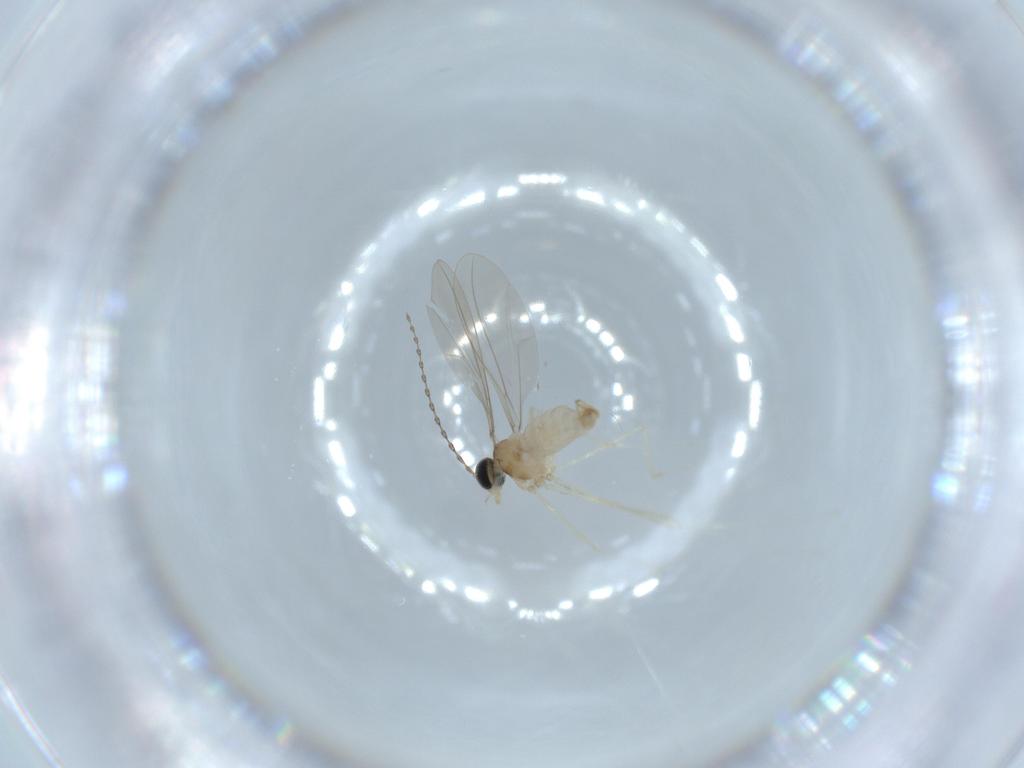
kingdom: Animalia
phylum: Arthropoda
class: Insecta
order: Diptera
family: Cecidomyiidae
